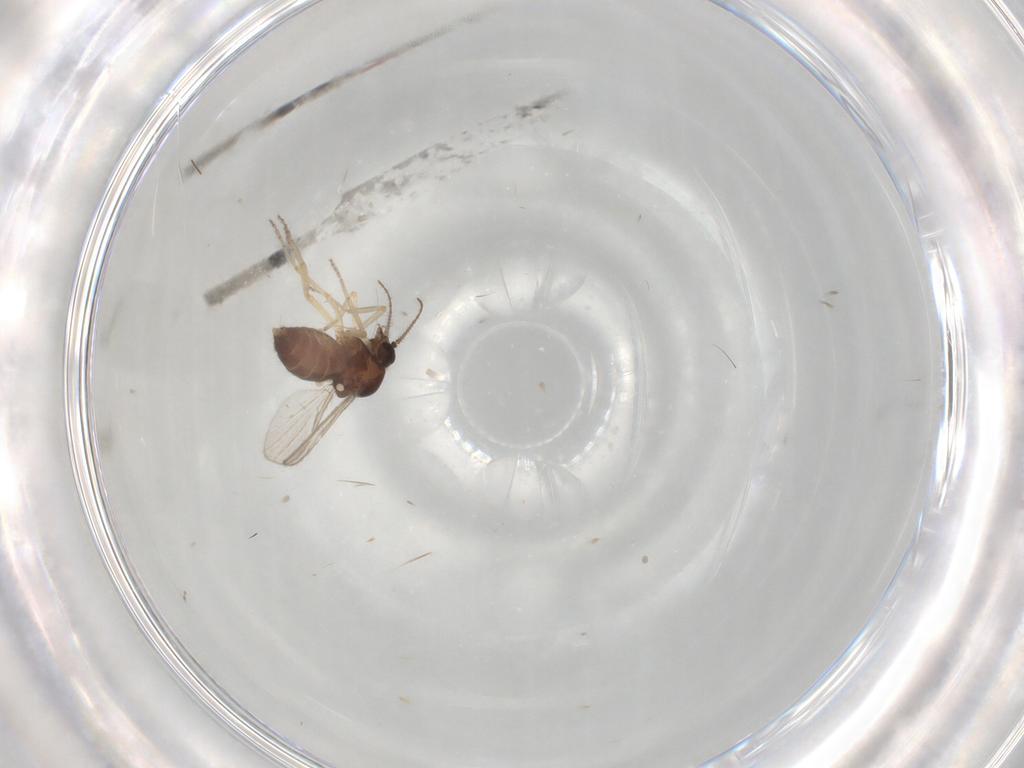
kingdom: Animalia
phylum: Arthropoda
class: Insecta
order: Diptera
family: Ceratopogonidae
